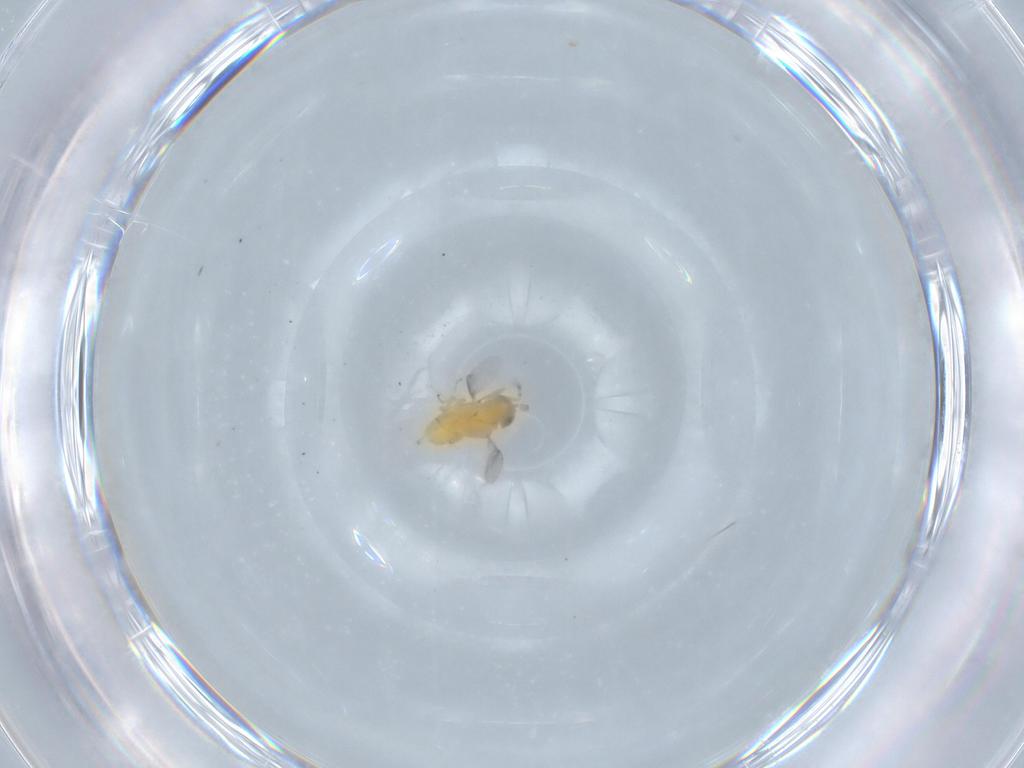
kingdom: Animalia
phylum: Arthropoda
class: Insecta
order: Hymenoptera
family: Encyrtidae
